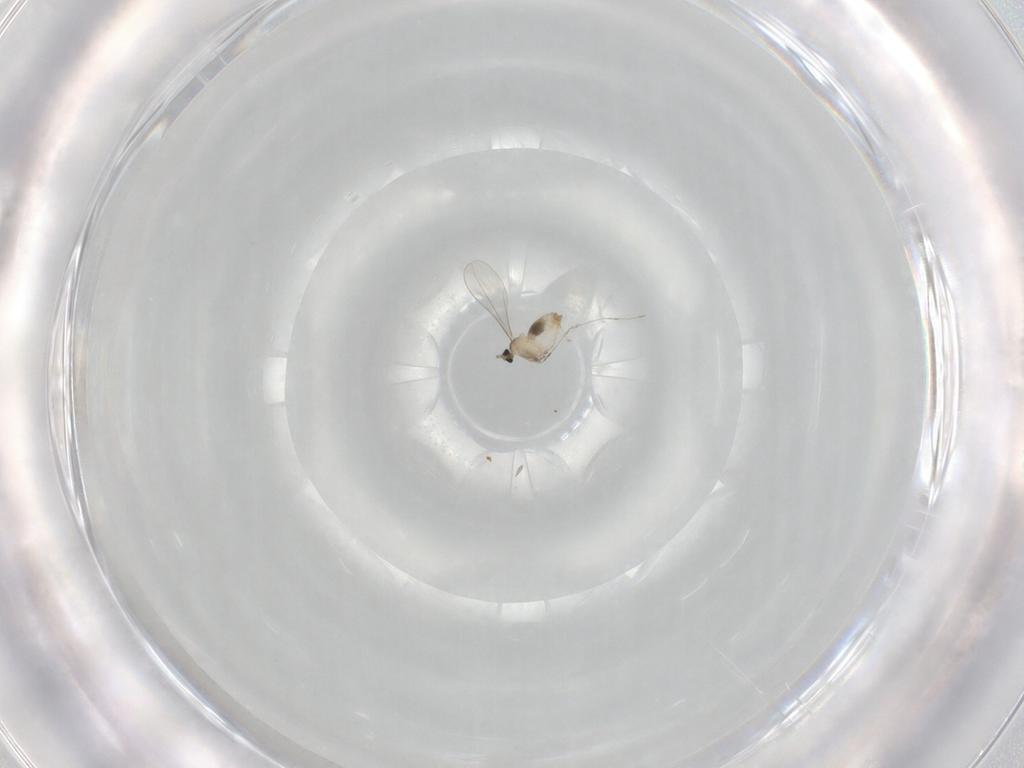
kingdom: Animalia
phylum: Arthropoda
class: Insecta
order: Diptera
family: Cecidomyiidae
